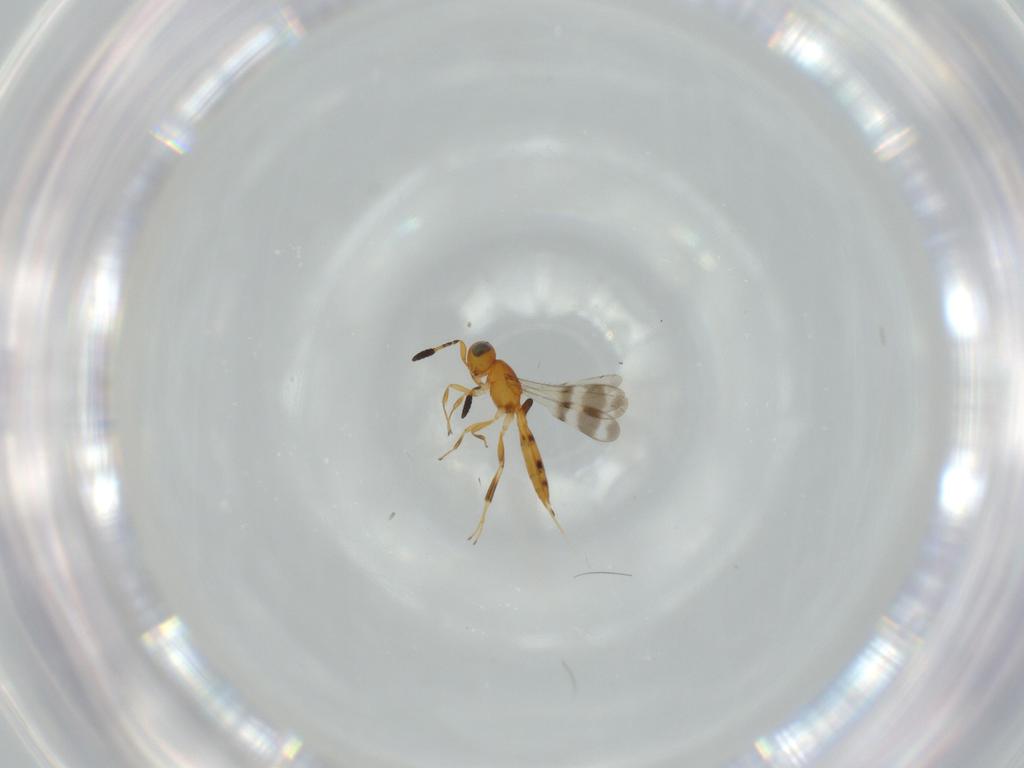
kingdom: Animalia
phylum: Arthropoda
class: Insecta
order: Hymenoptera
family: Scelionidae
